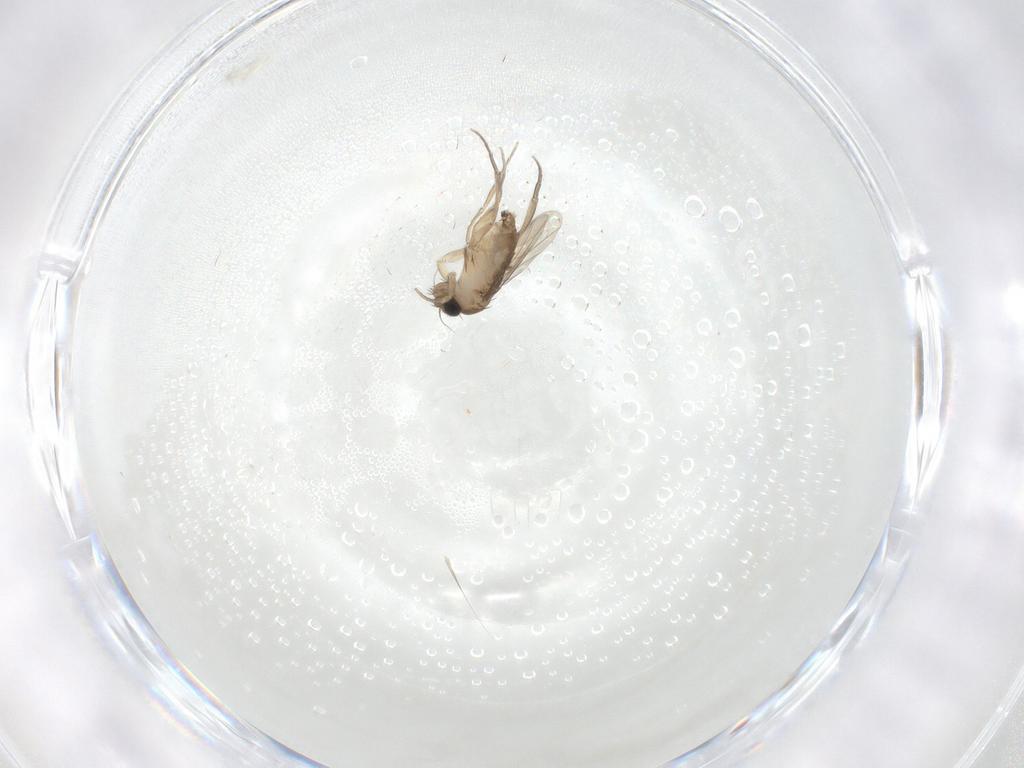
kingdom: Animalia
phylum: Arthropoda
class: Insecta
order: Diptera
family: Phoridae
